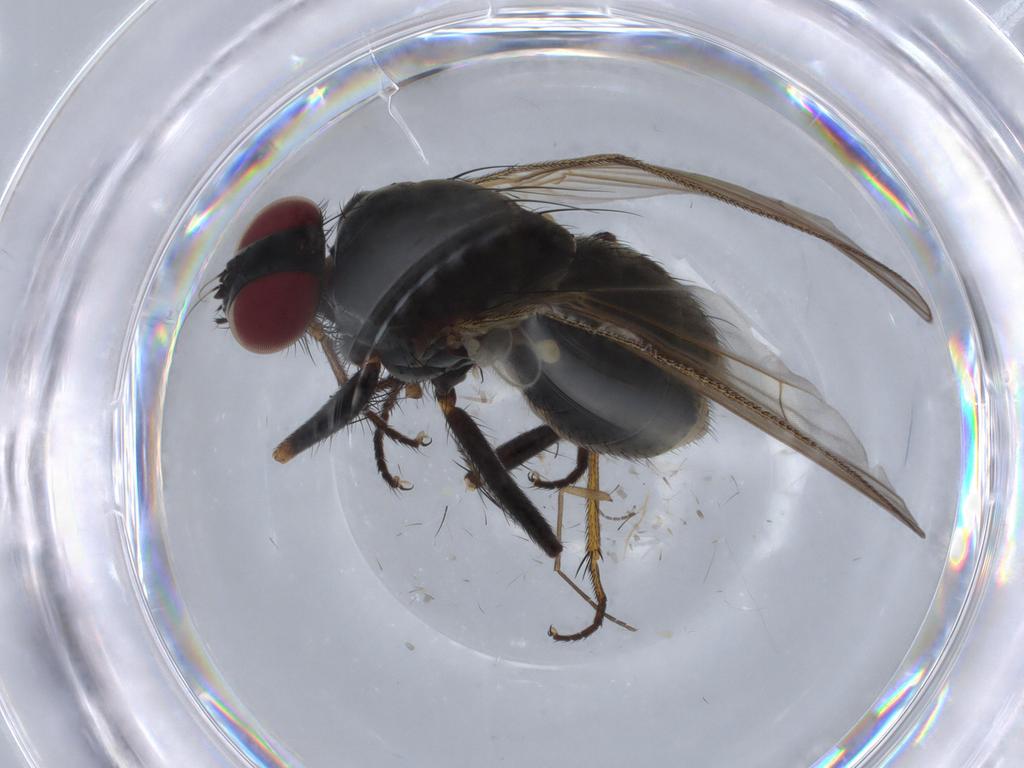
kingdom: Animalia
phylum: Arthropoda
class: Insecta
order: Diptera
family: Muscidae
